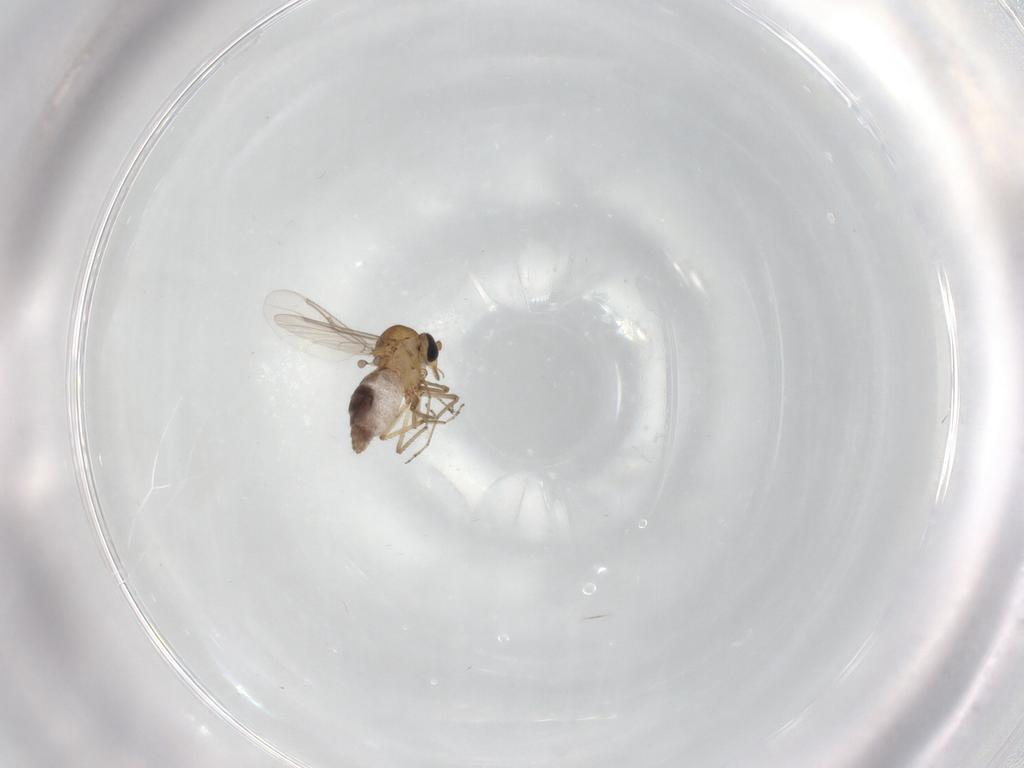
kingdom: Animalia
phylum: Arthropoda
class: Insecta
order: Diptera
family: Ceratopogonidae
